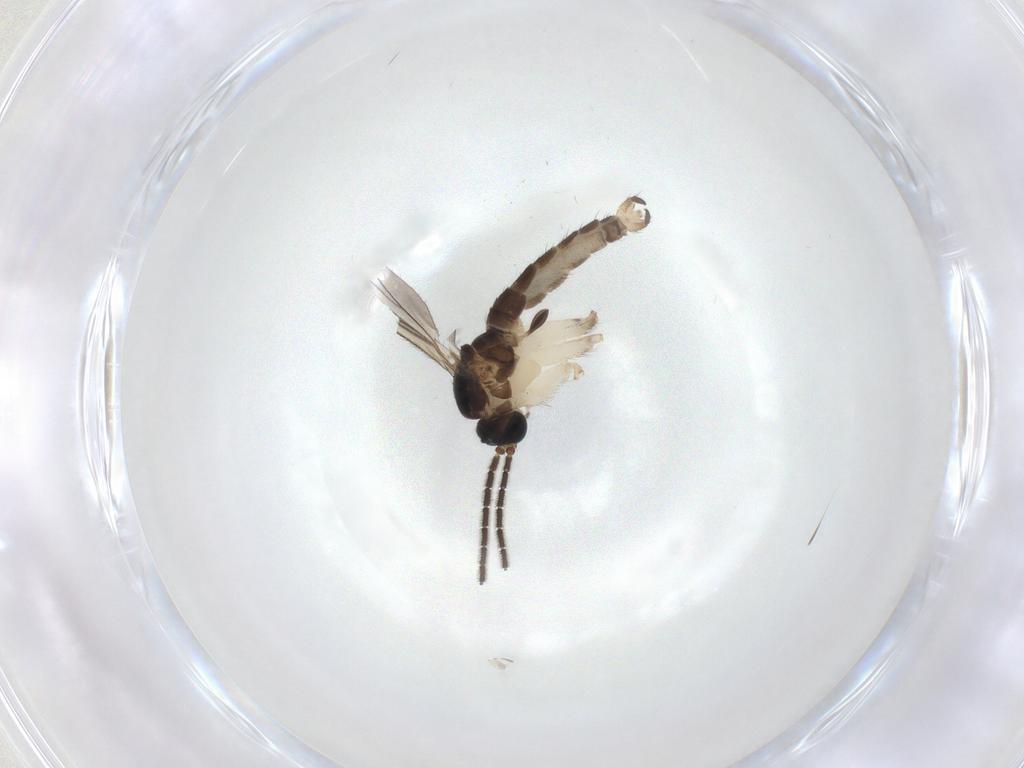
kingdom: Animalia
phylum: Arthropoda
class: Insecta
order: Diptera
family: Sciaridae
